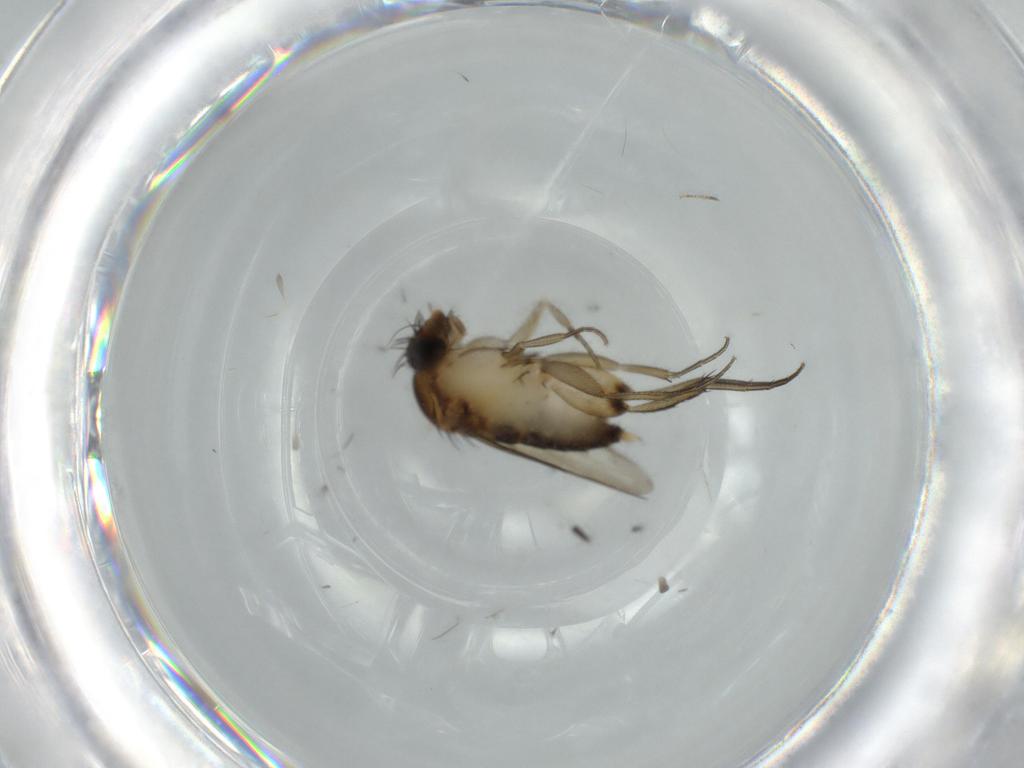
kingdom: Animalia
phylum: Arthropoda
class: Insecta
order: Diptera
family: Phoridae
